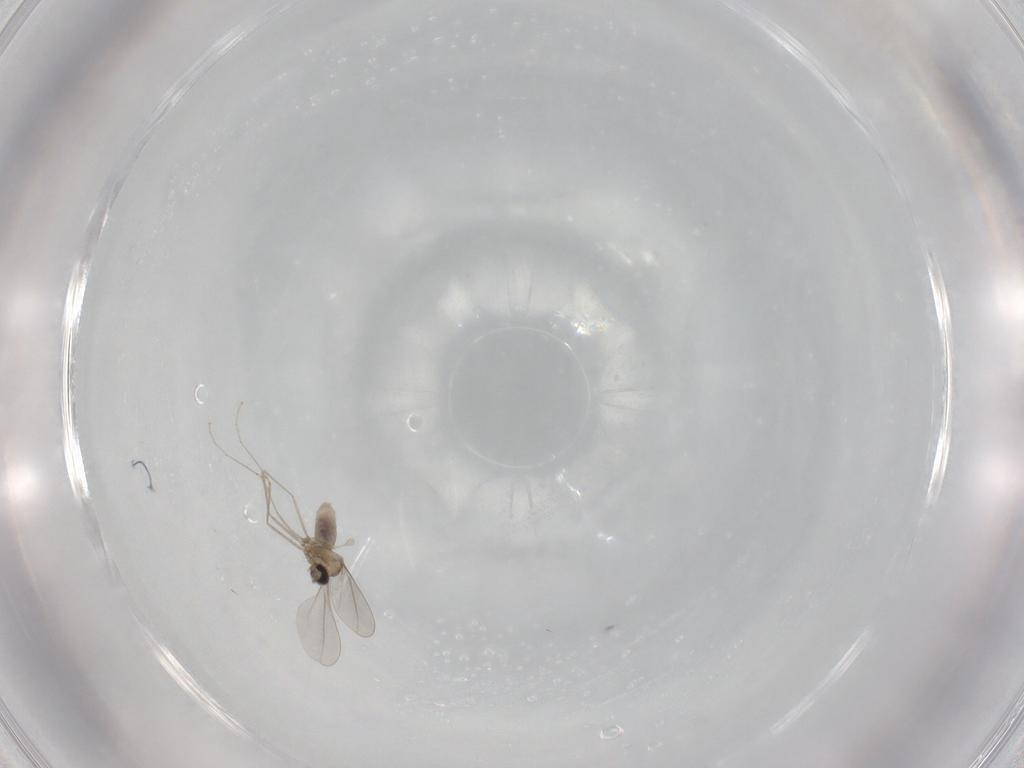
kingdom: Animalia
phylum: Arthropoda
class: Insecta
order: Diptera
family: Cecidomyiidae
